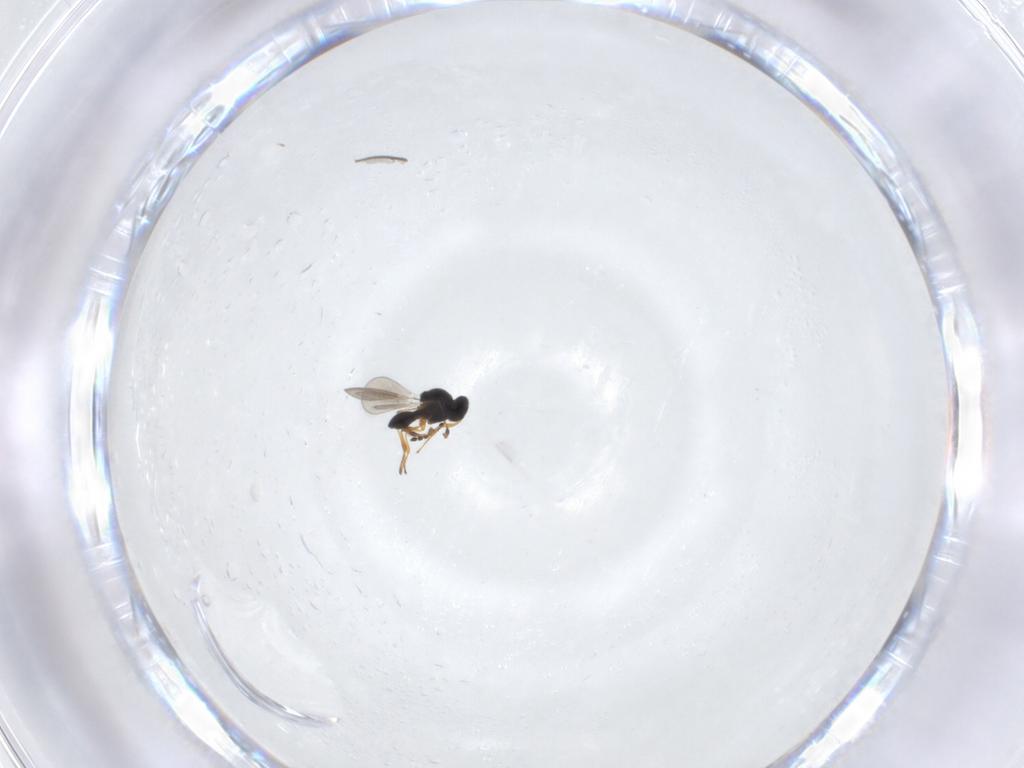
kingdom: Animalia
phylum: Arthropoda
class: Insecta
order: Hymenoptera
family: Platygastridae
